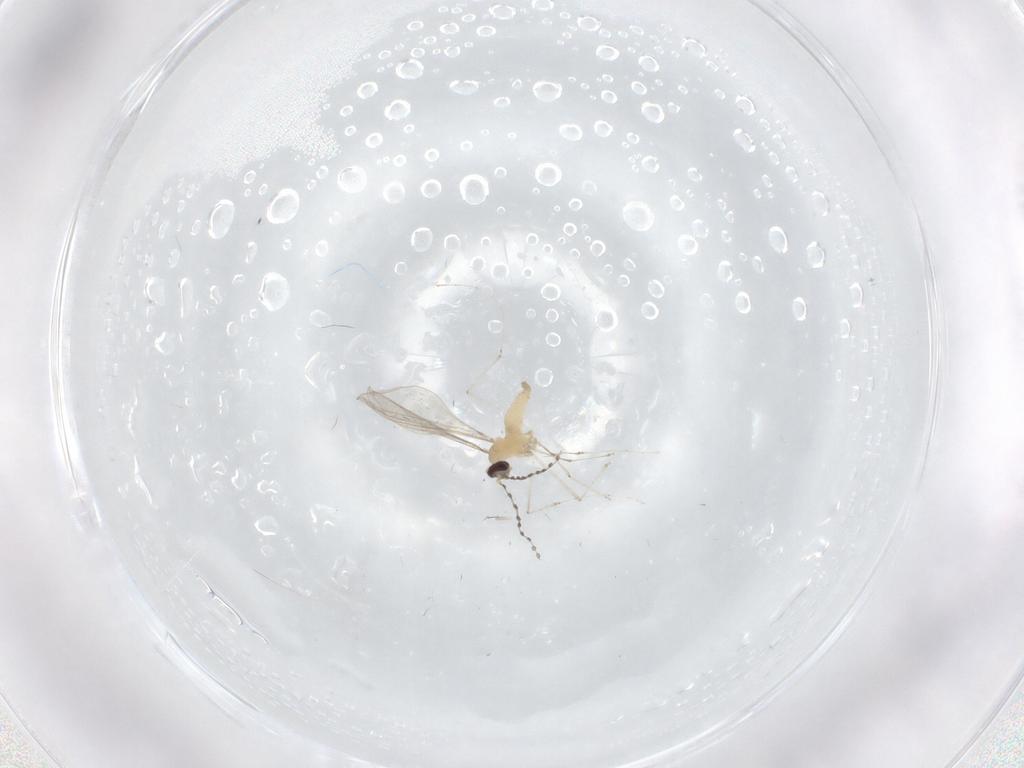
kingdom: Animalia
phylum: Arthropoda
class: Insecta
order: Diptera
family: Cecidomyiidae
